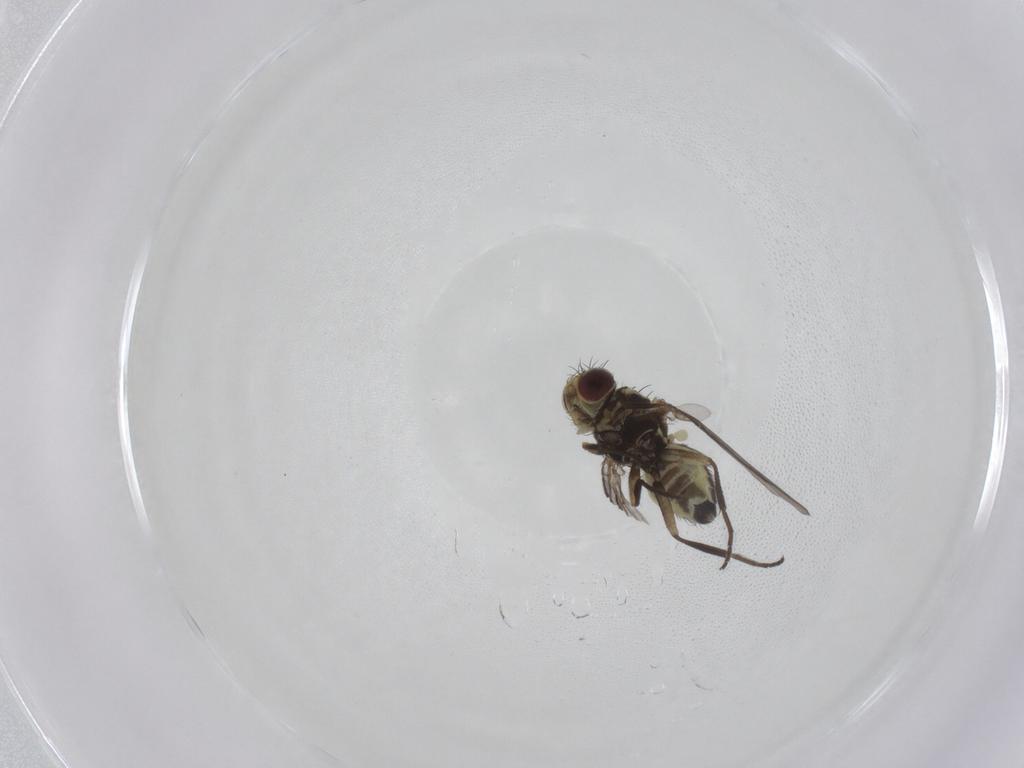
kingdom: Animalia
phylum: Arthropoda
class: Insecta
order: Diptera
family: Agromyzidae
